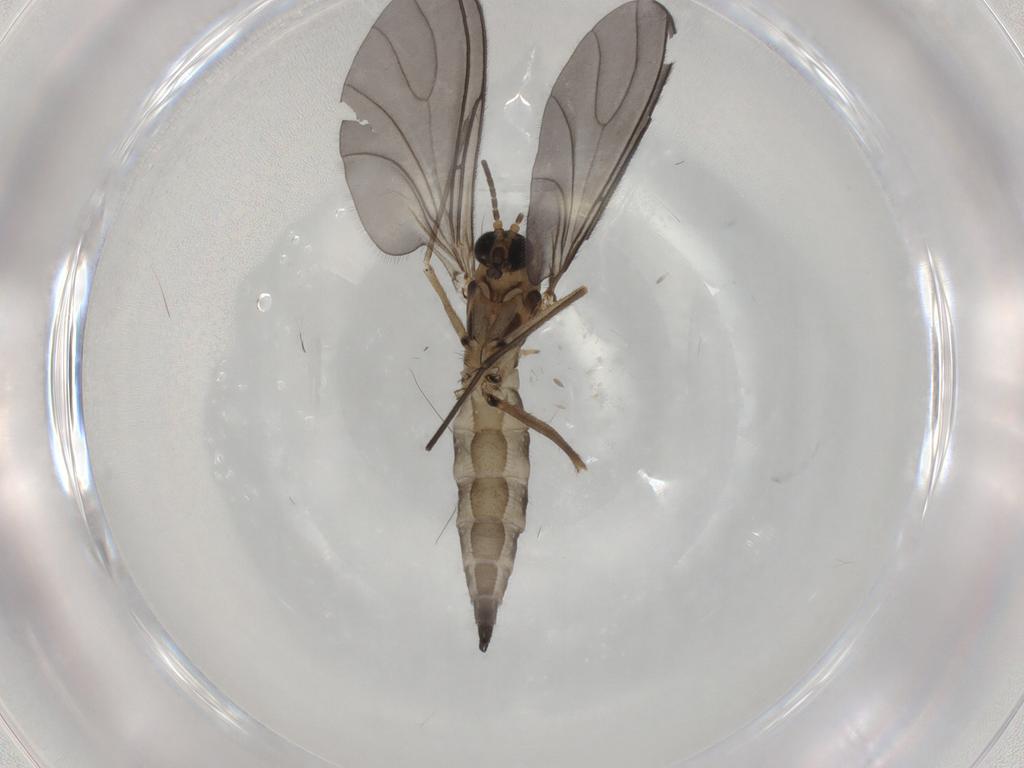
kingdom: Animalia
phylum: Arthropoda
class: Insecta
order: Diptera
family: Sciaridae
